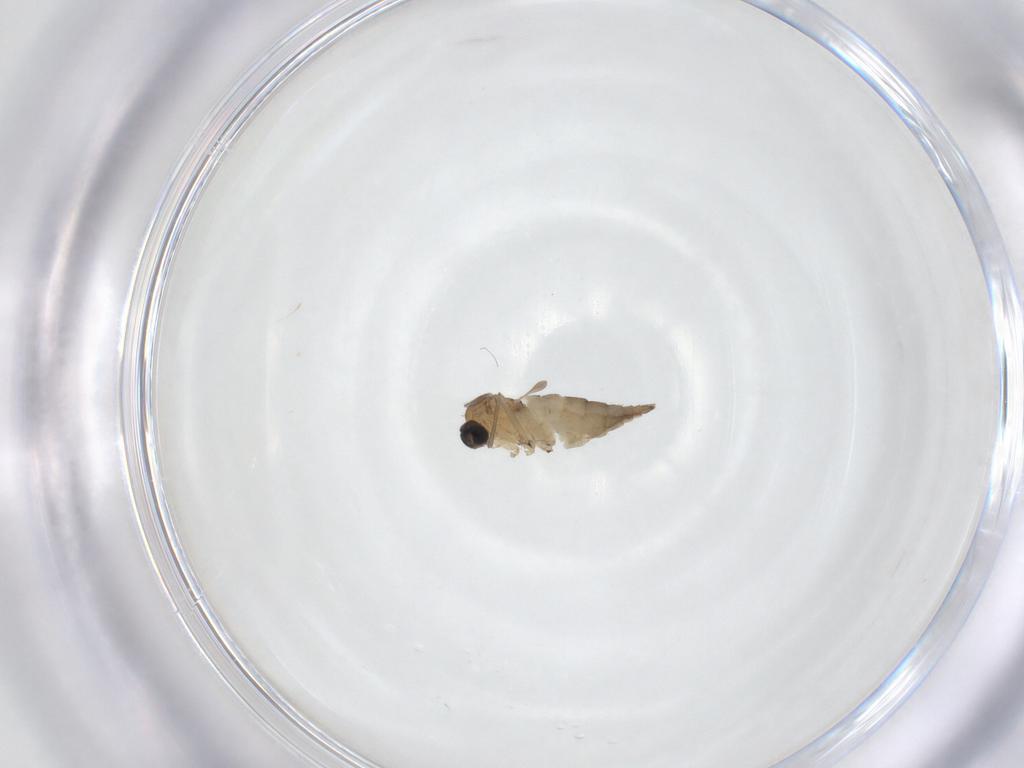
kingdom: Animalia
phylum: Arthropoda
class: Insecta
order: Diptera
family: Sciaridae
